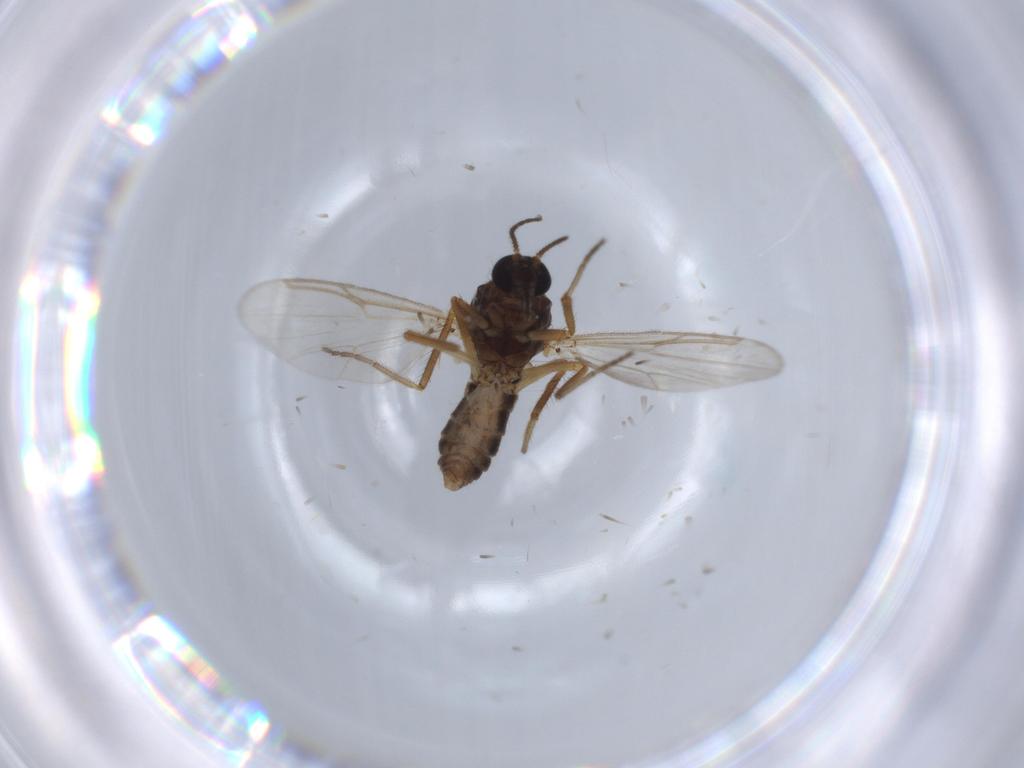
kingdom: Animalia
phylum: Arthropoda
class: Insecta
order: Diptera
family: Ceratopogonidae
